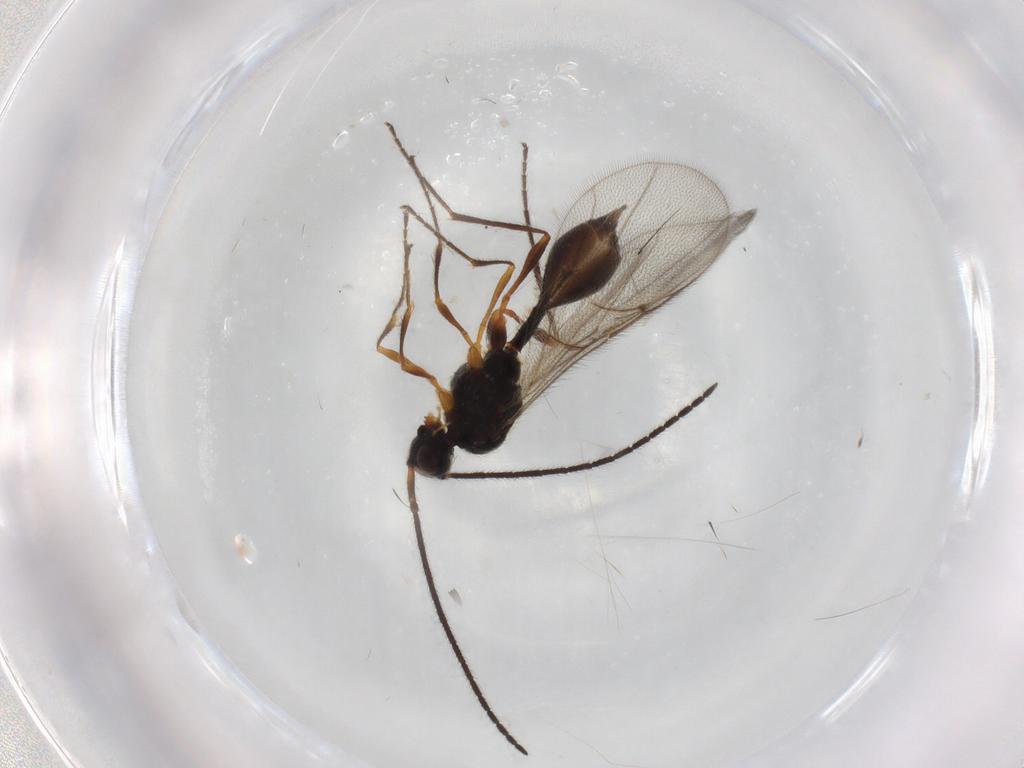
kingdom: Animalia
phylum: Arthropoda
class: Insecta
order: Hymenoptera
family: Diapriidae
